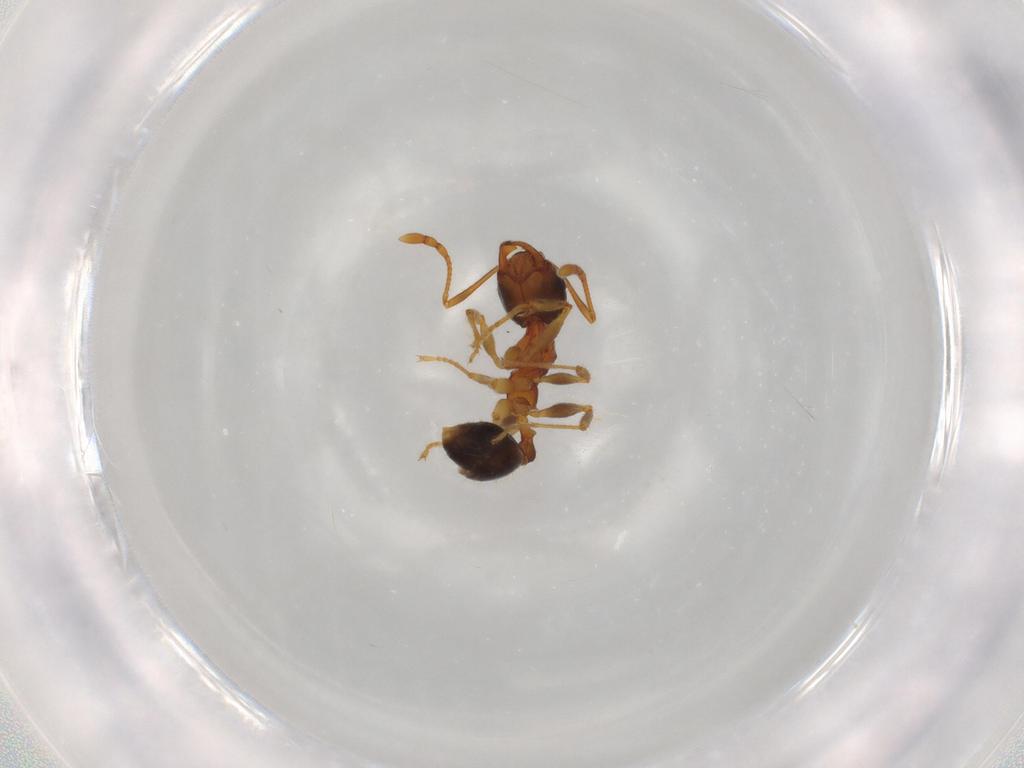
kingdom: Animalia
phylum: Arthropoda
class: Insecta
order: Hymenoptera
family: Formicidae
